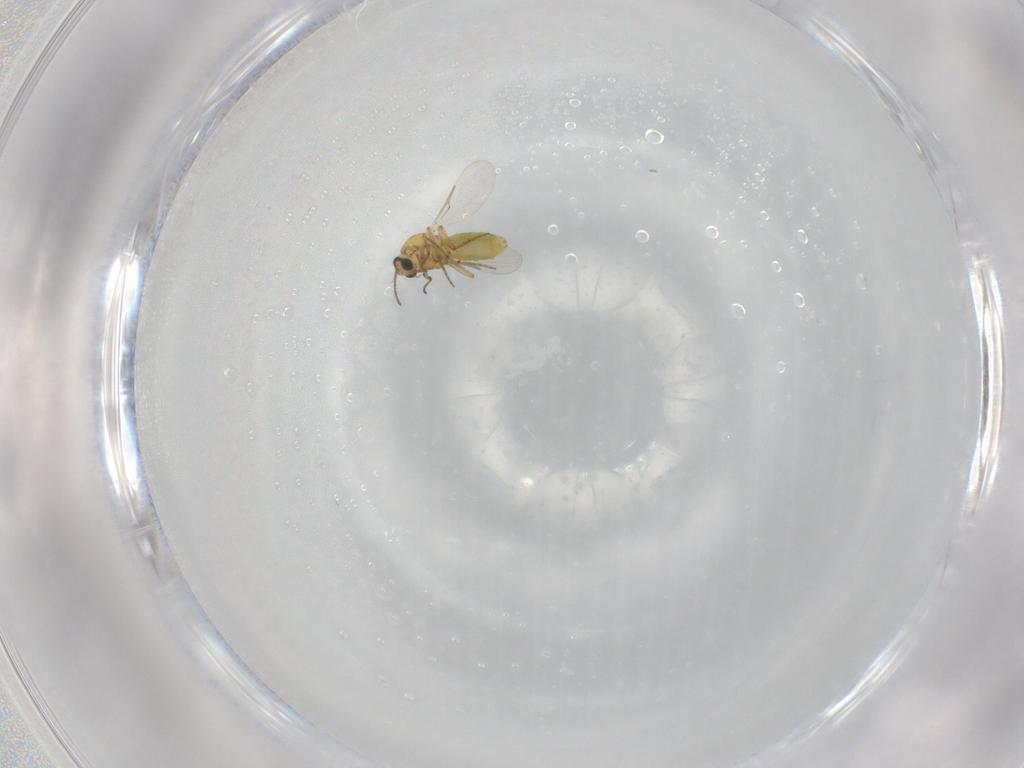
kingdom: Animalia
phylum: Arthropoda
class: Insecta
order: Diptera
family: Ceratopogonidae
